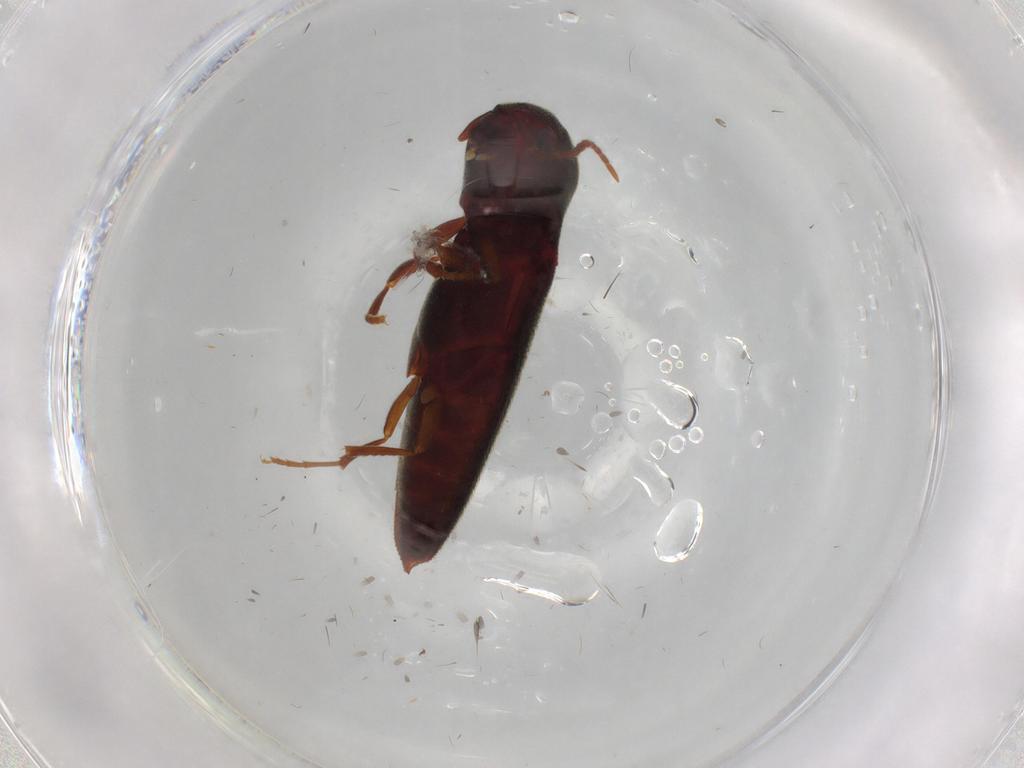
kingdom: Animalia
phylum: Arthropoda
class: Insecta
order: Coleoptera
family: Eucnemidae
